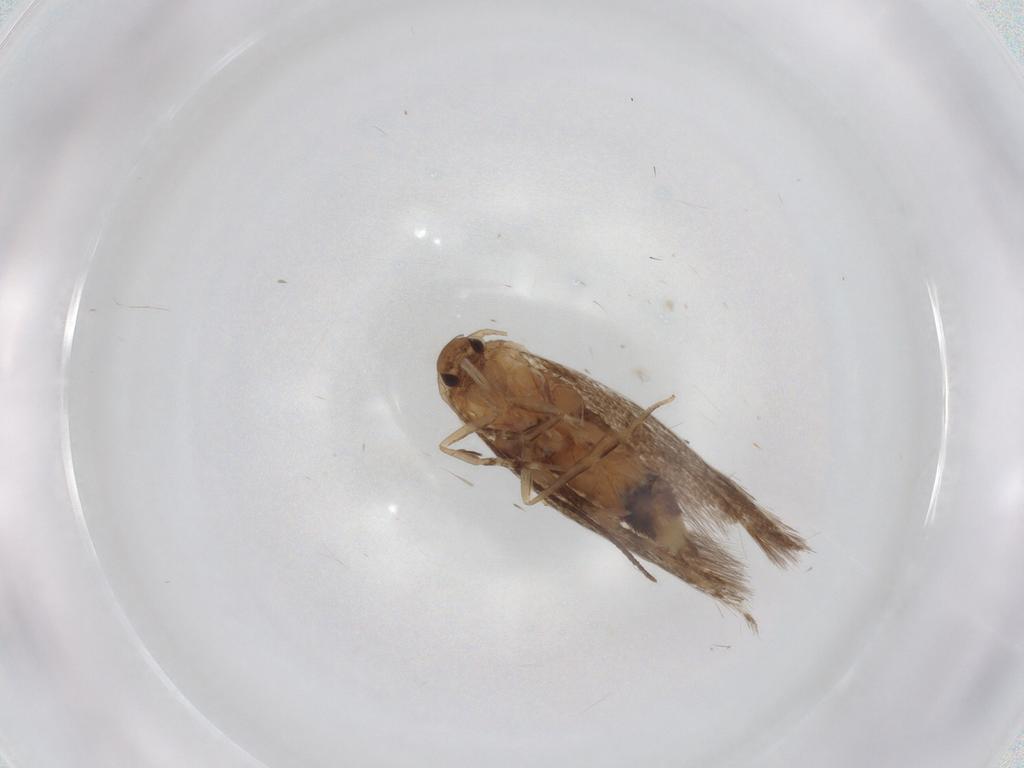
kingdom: Animalia
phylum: Arthropoda
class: Insecta
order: Lepidoptera
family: Elachistidae
